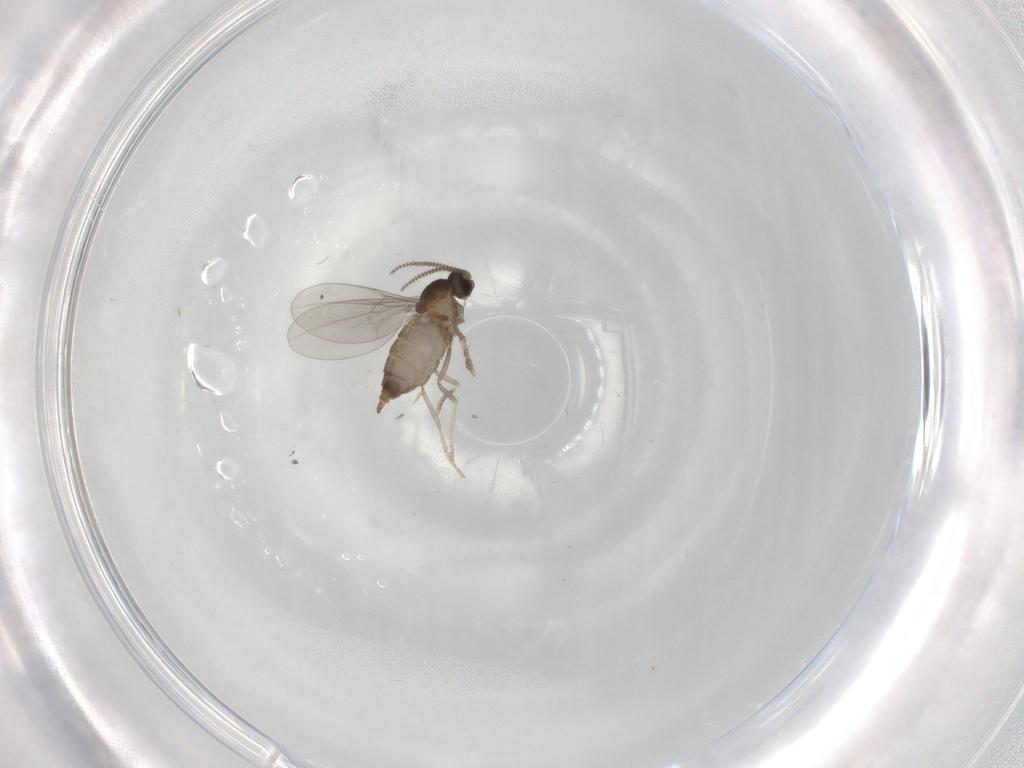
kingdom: Animalia
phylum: Arthropoda
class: Insecta
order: Diptera
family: Cecidomyiidae
